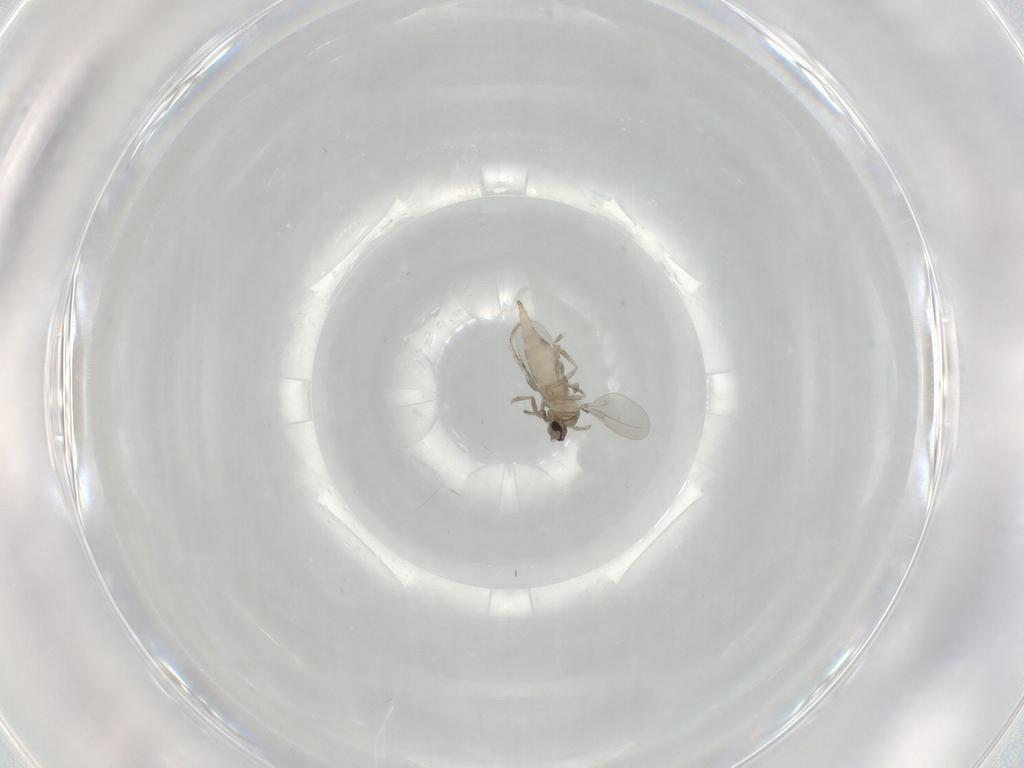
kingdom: Animalia
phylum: Arthropoda
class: Insecta
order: Diptera
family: Cecidomyiidae
